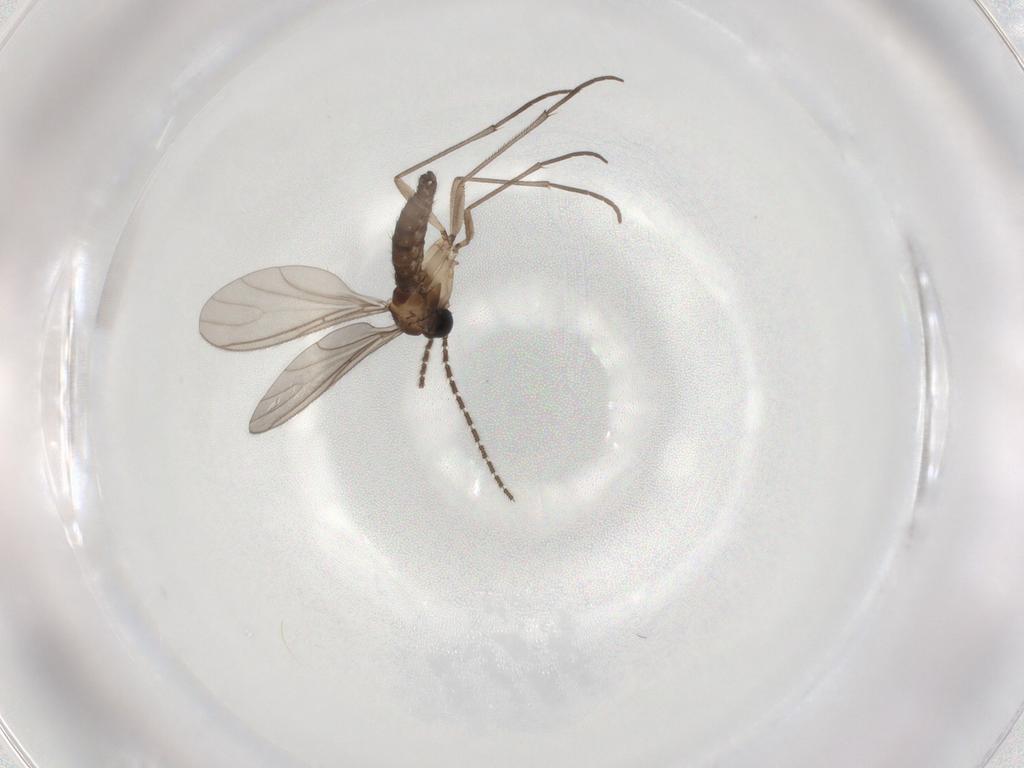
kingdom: Animalia
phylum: Arthropoda
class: Insecta
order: Diptera
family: Sciaridae
